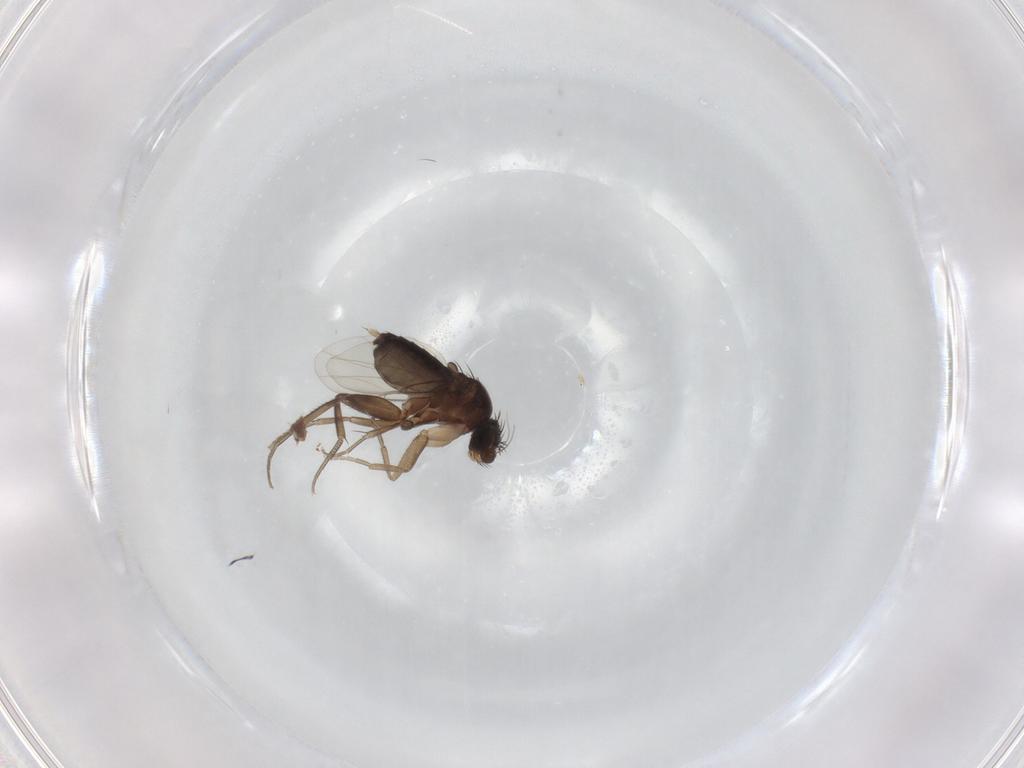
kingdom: Animalia
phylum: Arthropoda
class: Insecta
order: Diptera
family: Phoridae
